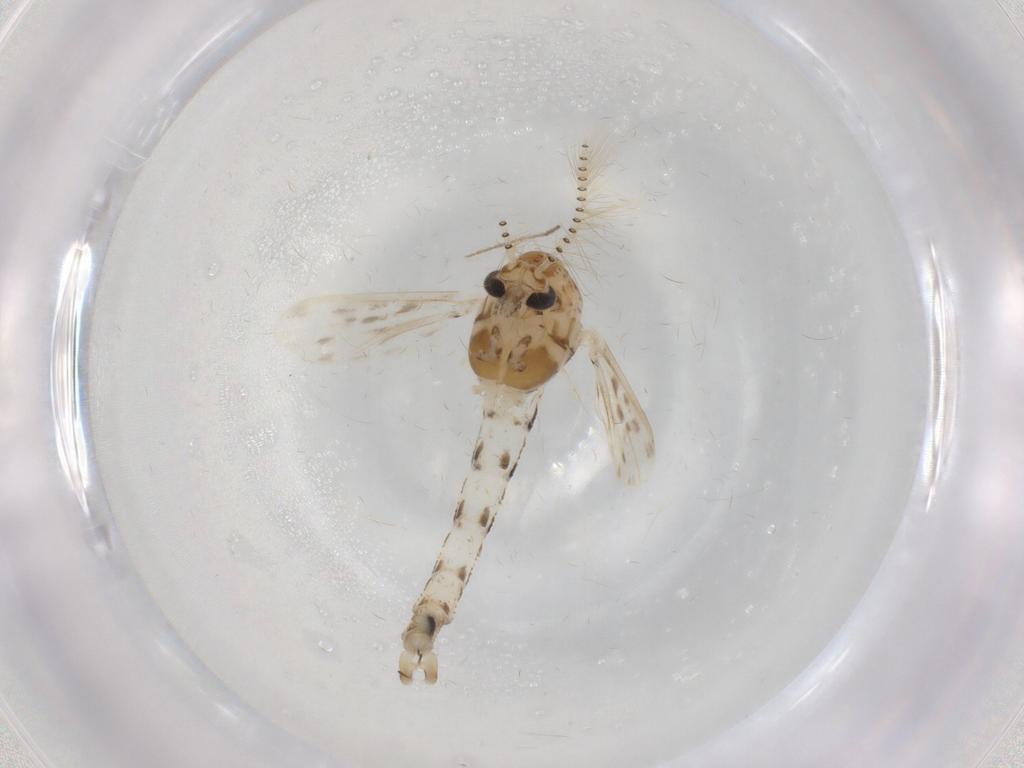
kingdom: Animalia
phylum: Arthropoda
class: Insecta
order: Diptera
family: Chaoboridae
